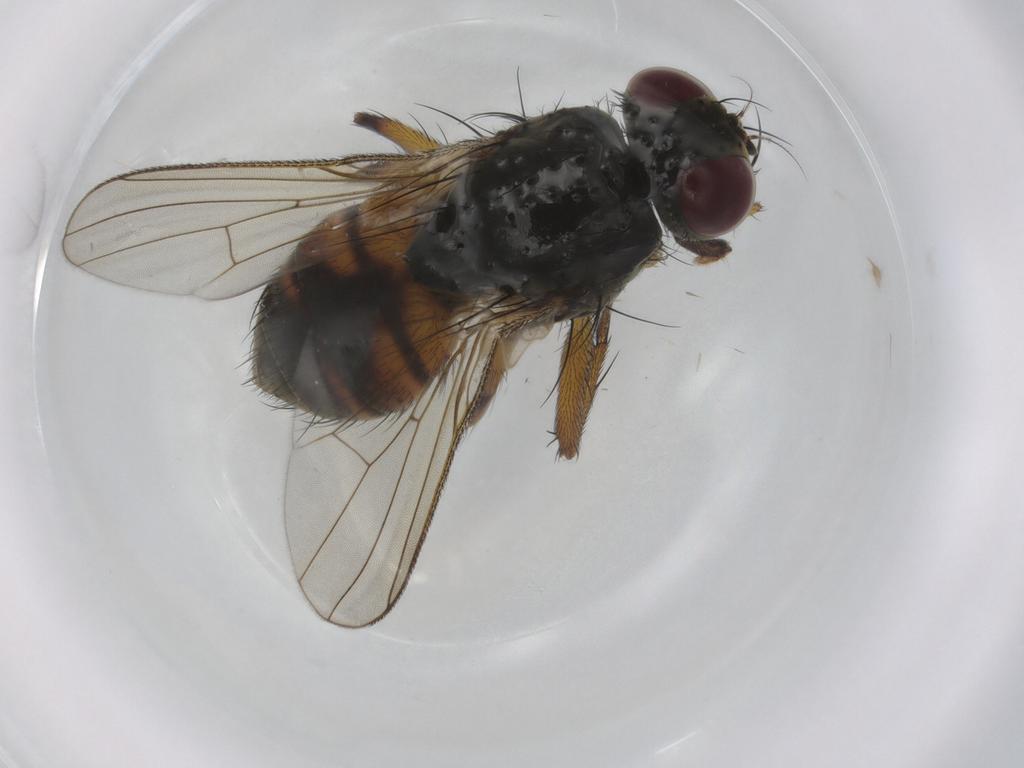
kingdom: Animalia
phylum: Arthropoda
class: Insecta
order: Diptera
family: Muscidae
